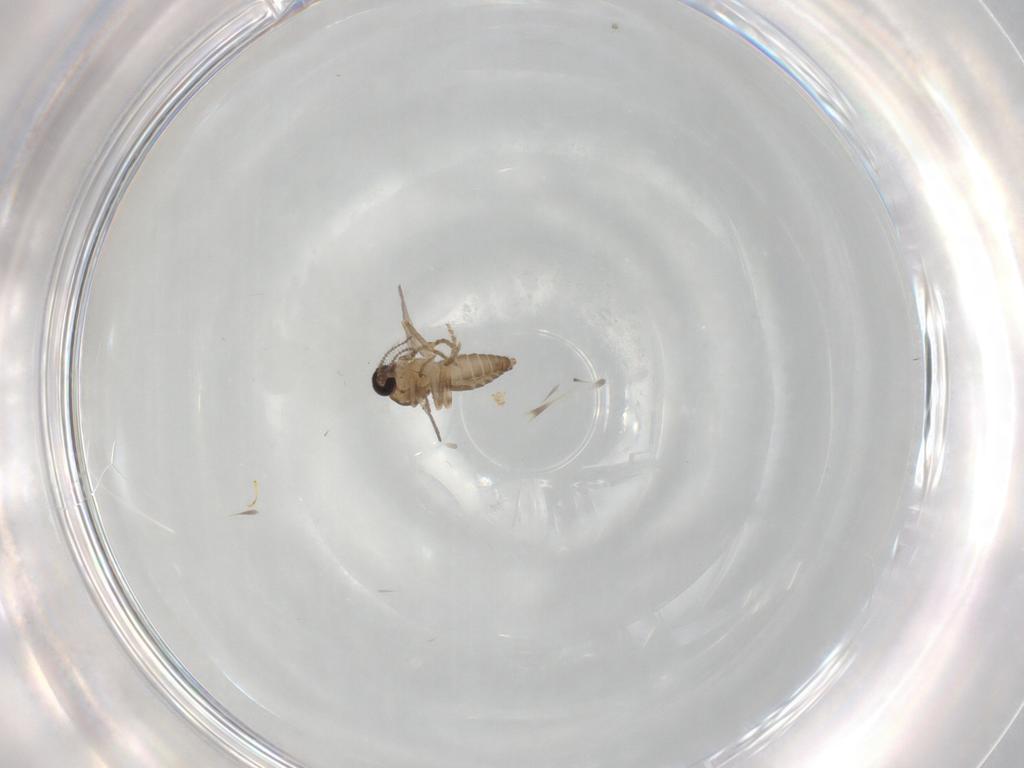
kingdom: Animalia
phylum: Arthropoda
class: Insecta
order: Diptera
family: Ceratopogonidae
